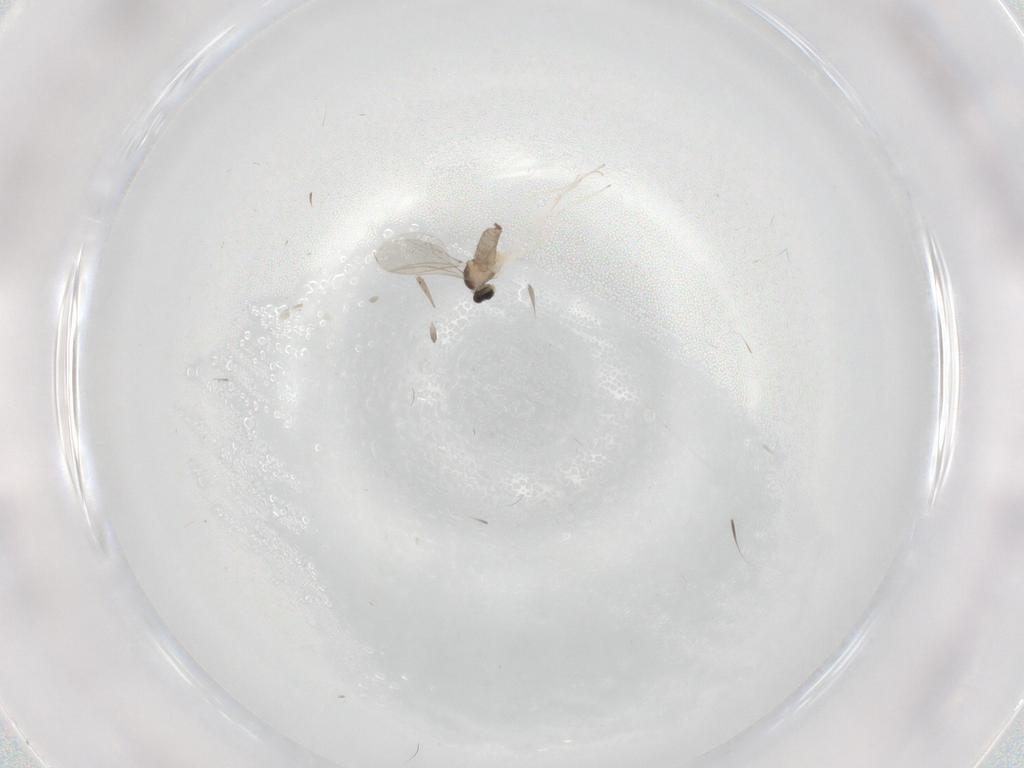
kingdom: Animalia
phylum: Arthropoda
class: Insecta
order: Diptera
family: Cecidomyiidae
